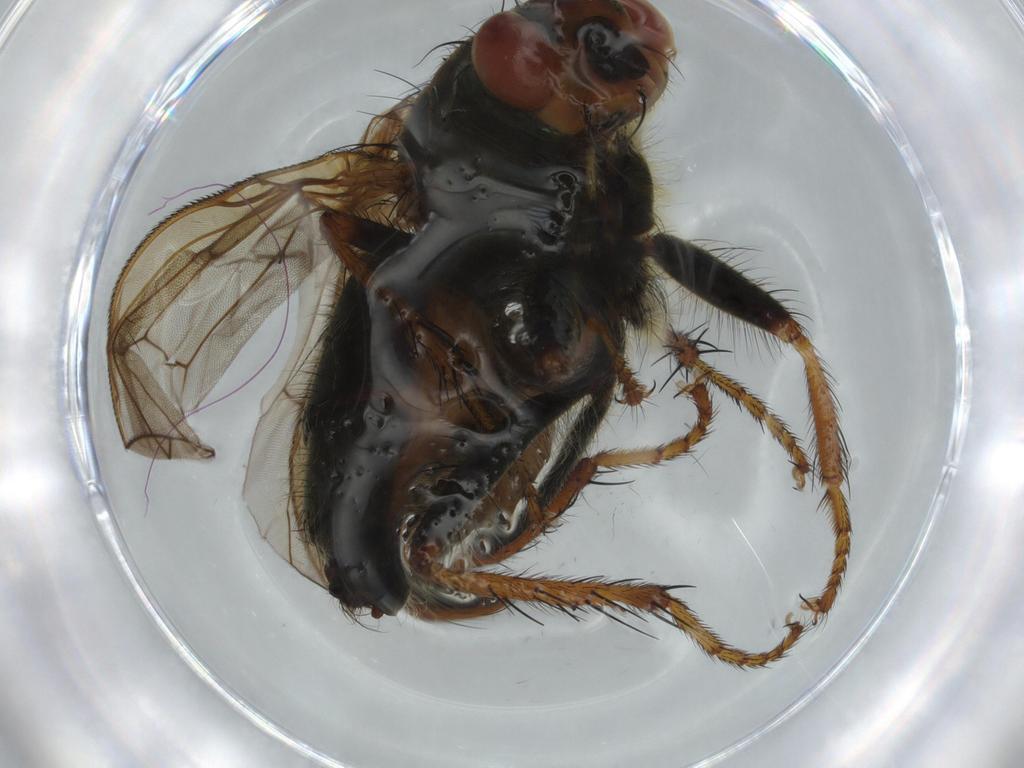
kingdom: Animalia
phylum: Arthropoda
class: Insecta
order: Diptera
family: Scathophagidae
